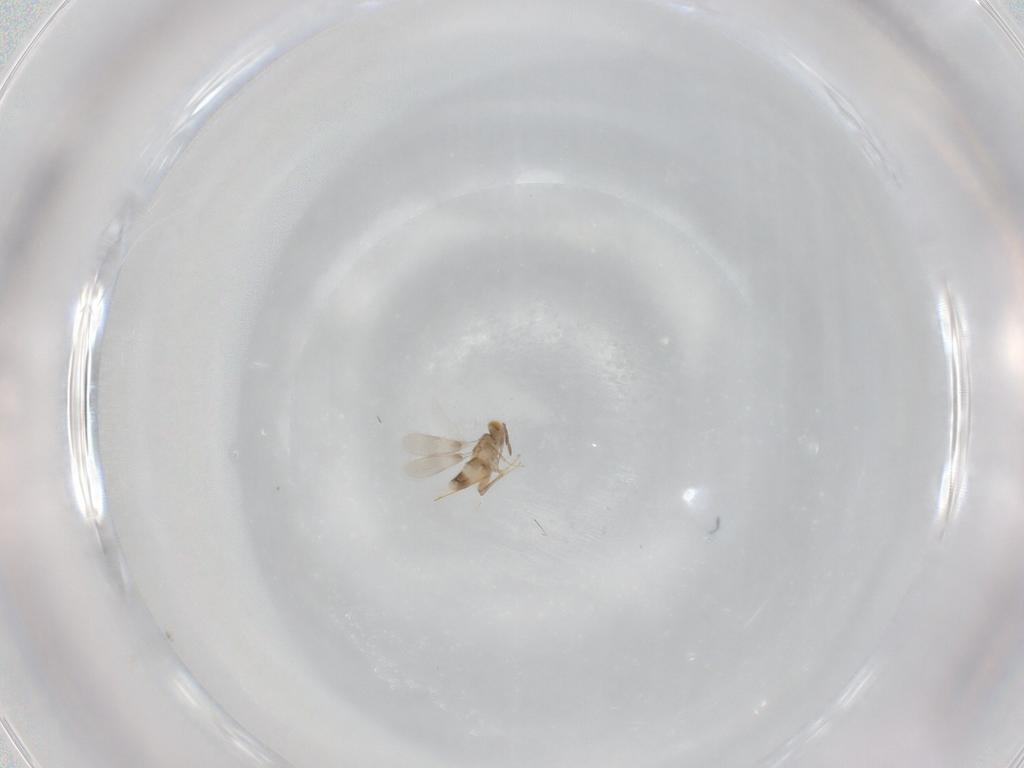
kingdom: Animalia
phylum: Arthropoda
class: Insecta
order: Hymenoptera
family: Aphelinidae
